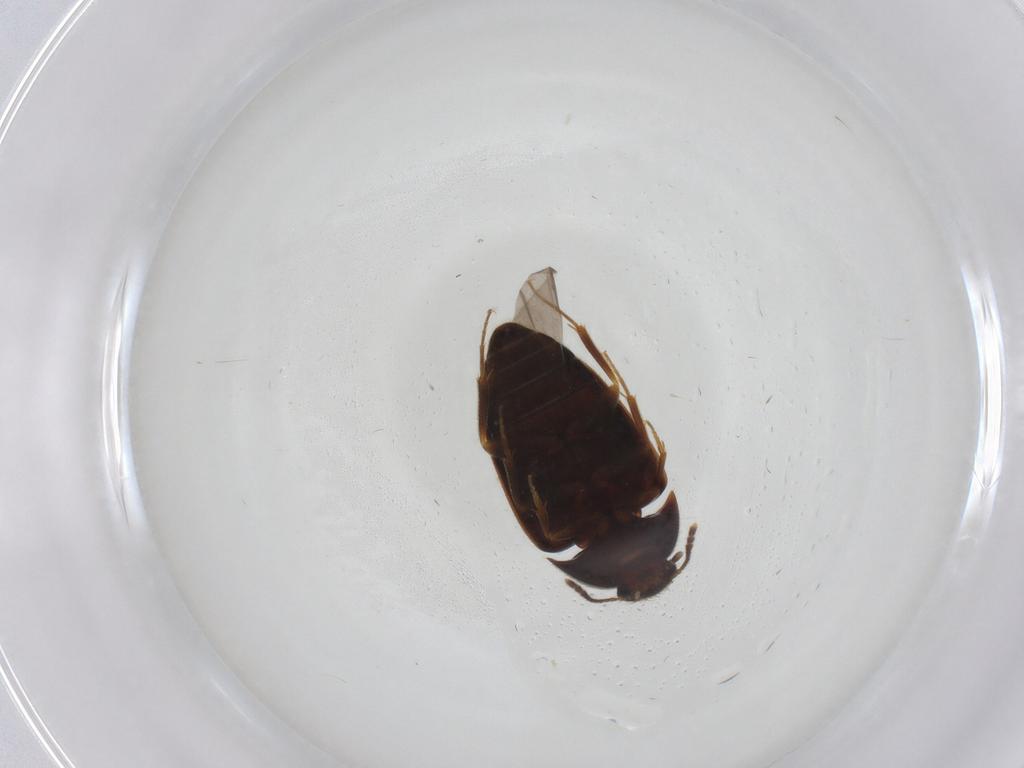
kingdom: Animalia
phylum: Arthropoda
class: Insecta
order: Coleoptera
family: Mycetophagidae
